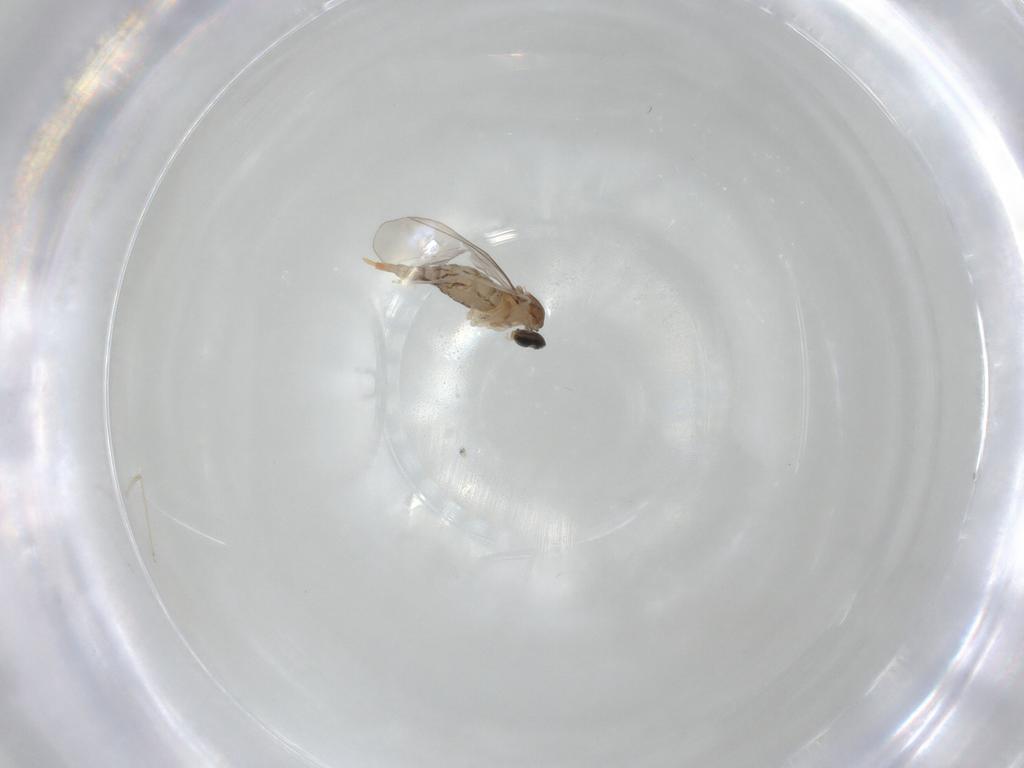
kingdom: Animalia
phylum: Arthropoda
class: Insecta
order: Diptera
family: Cecidomyiidae
